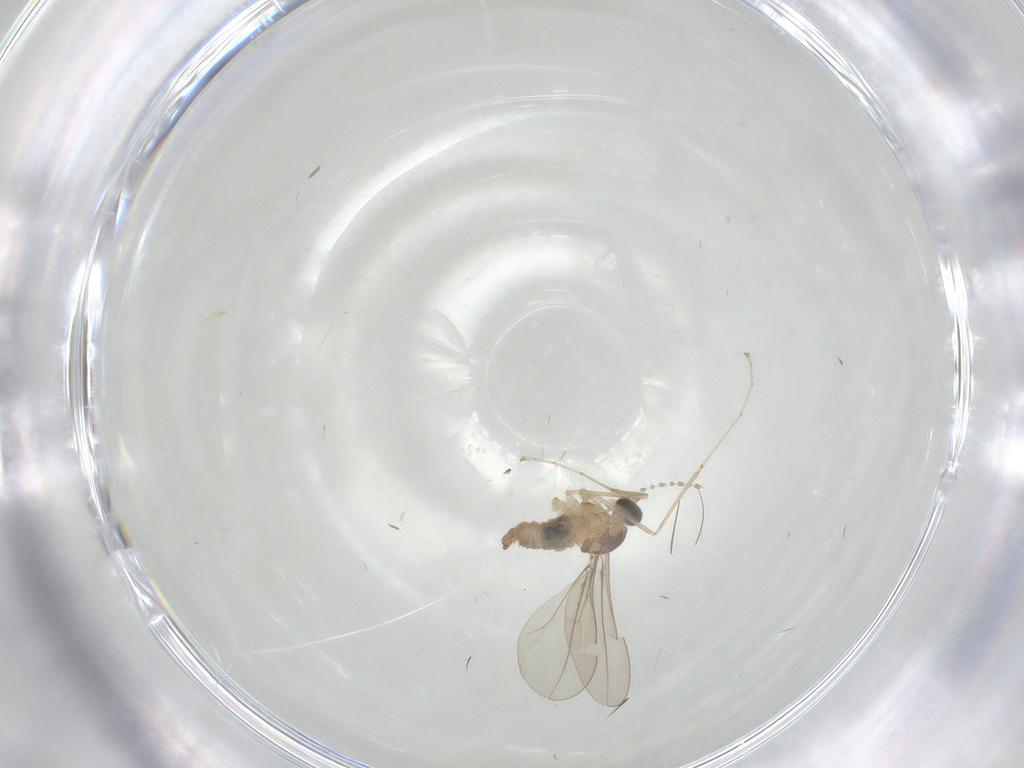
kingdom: Animalia
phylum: Arthropoda
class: Insecta
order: Diptera
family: Cecidomyiidae
